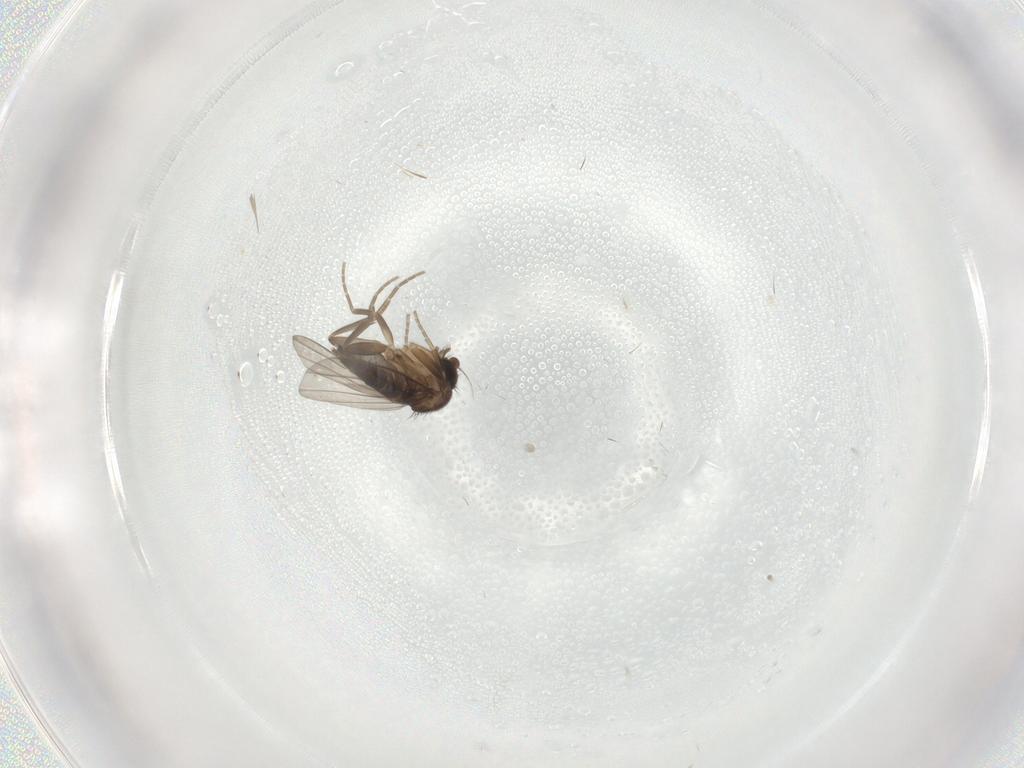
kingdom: Animalia
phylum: Arthropoda
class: Insecta
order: Diptera
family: Phoridae
